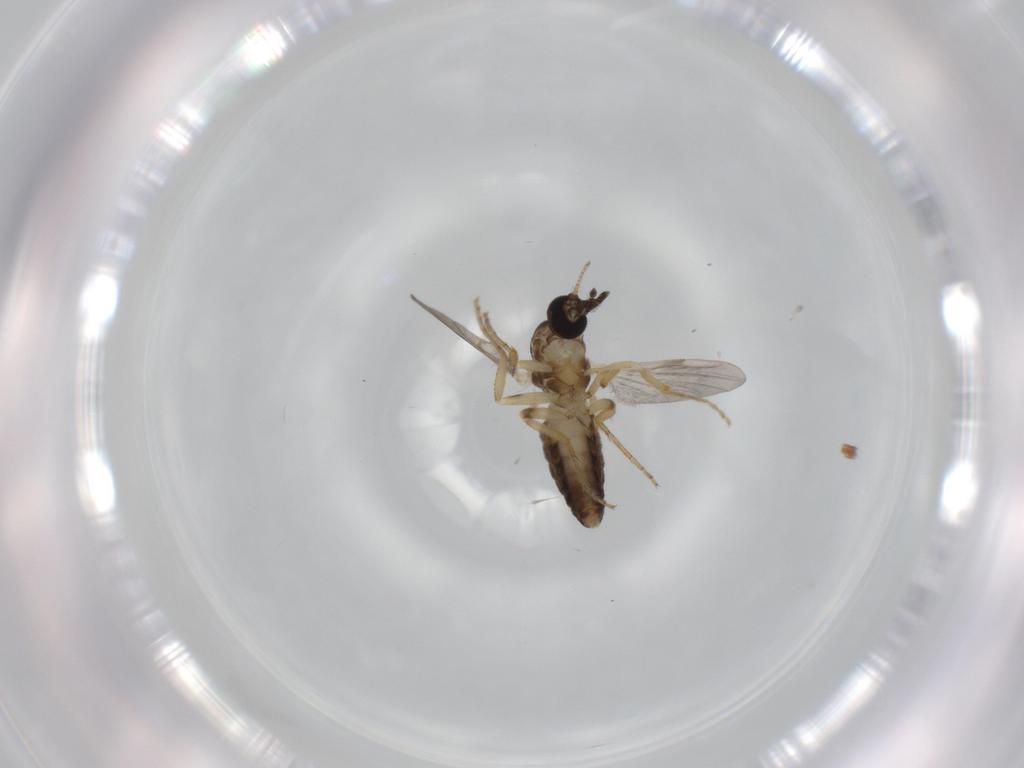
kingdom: Animalia
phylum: Arthropoda
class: Insecta
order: Diptera
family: Ceratopogonidae
